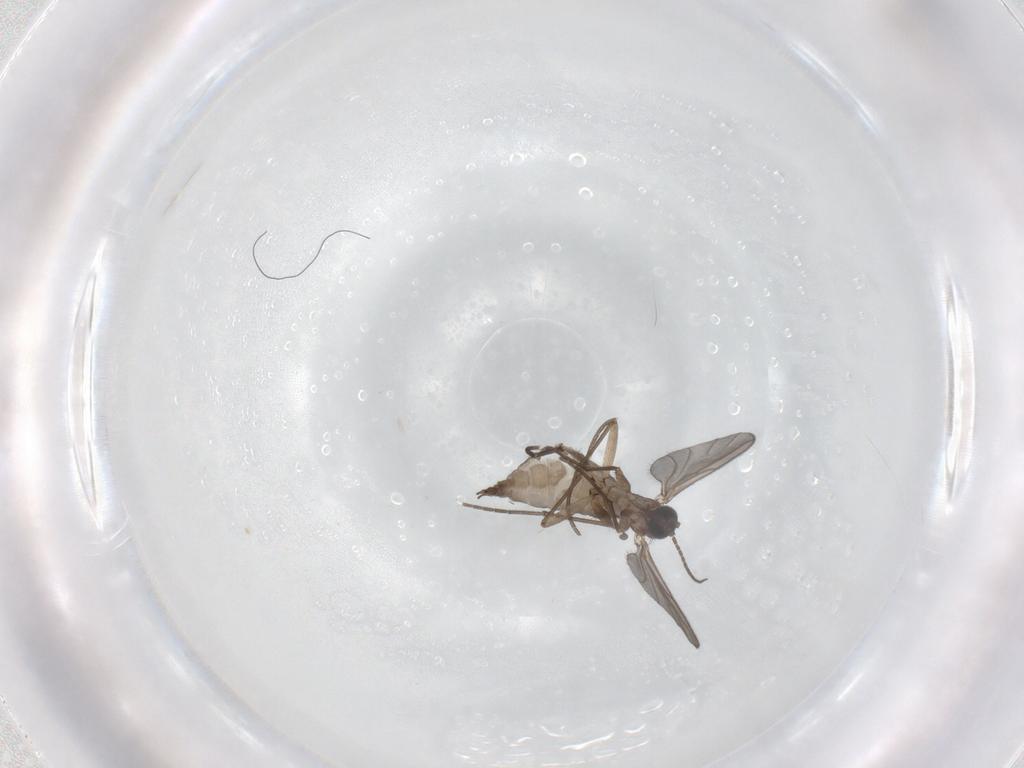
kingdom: Animalia
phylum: Arthropoda
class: Insecta
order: Diptera
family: Sciaridae
